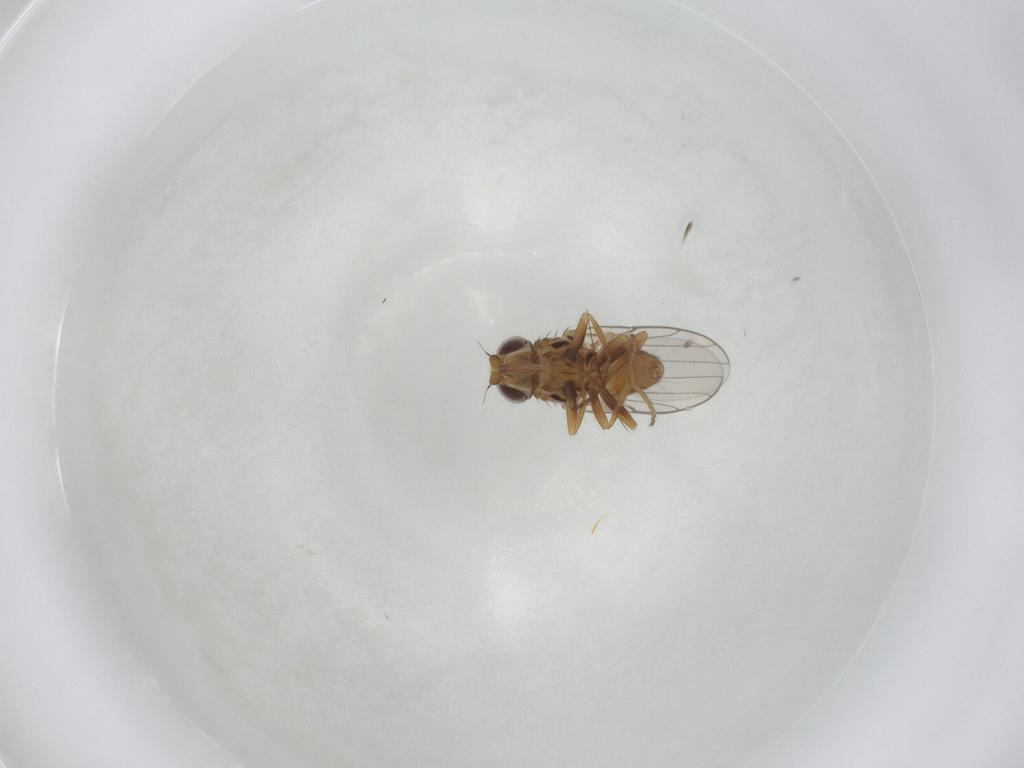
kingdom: Animalia
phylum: Arthropoda
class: Insecta
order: Diptera
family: Chloropidae
